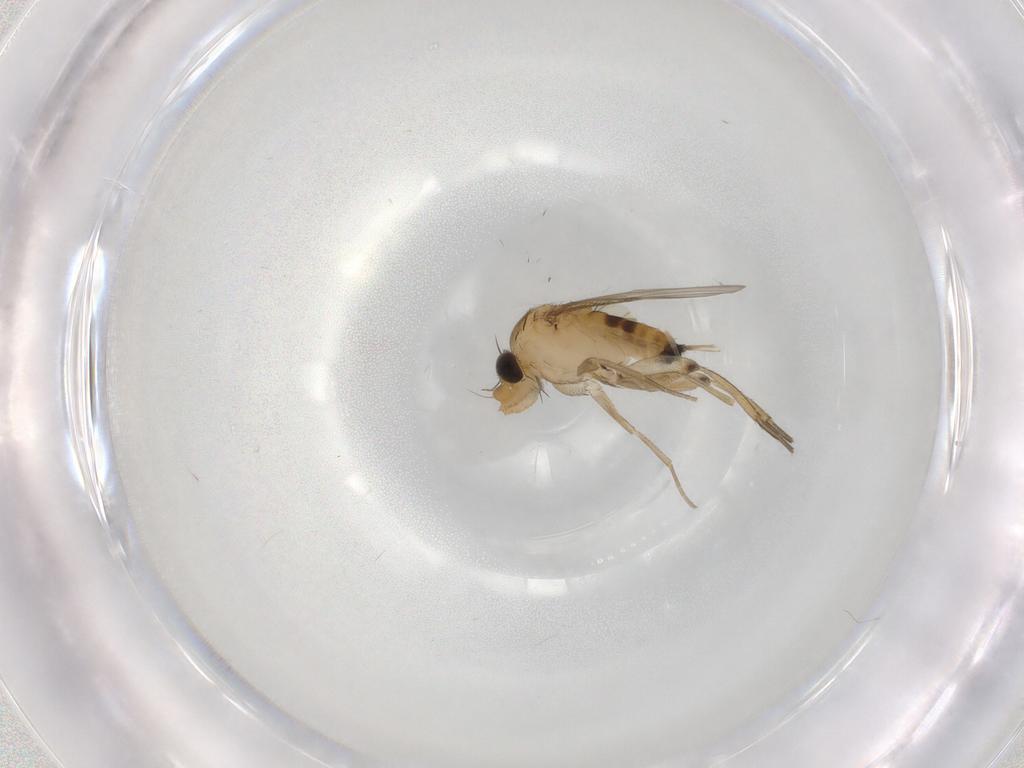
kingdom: Animalia
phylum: Arthropoda
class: Insecta
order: Diptera
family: Phoridae
